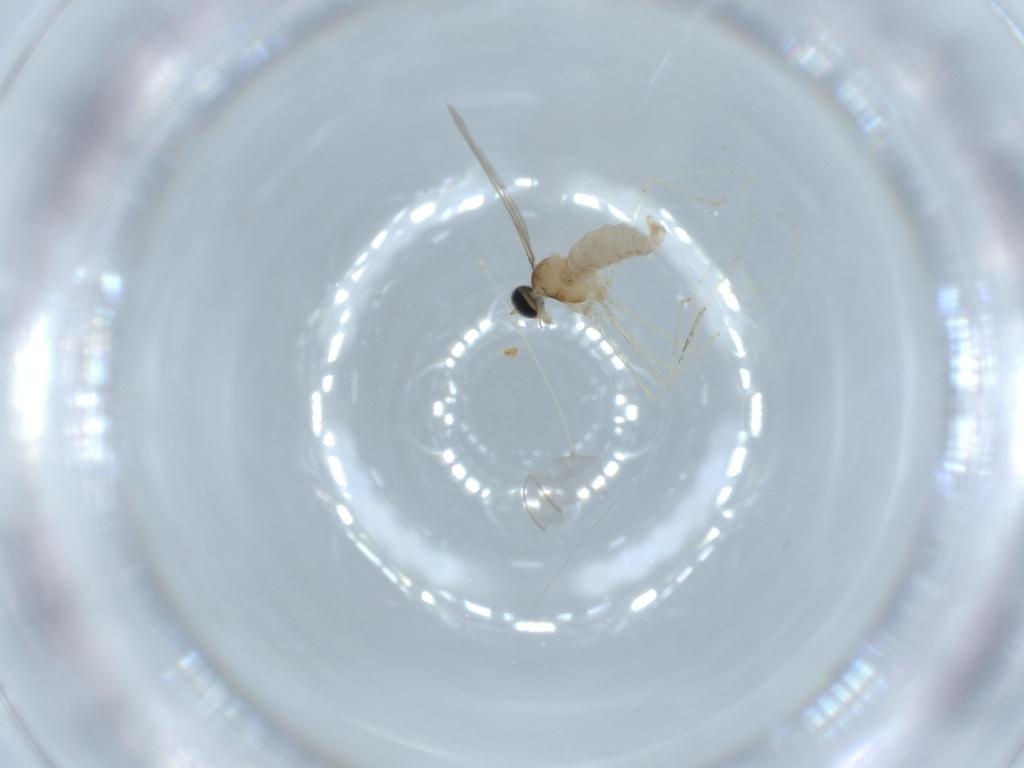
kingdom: Animalia
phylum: Arthropoda
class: Insecta
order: Diptera
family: Cecidomyiidae
